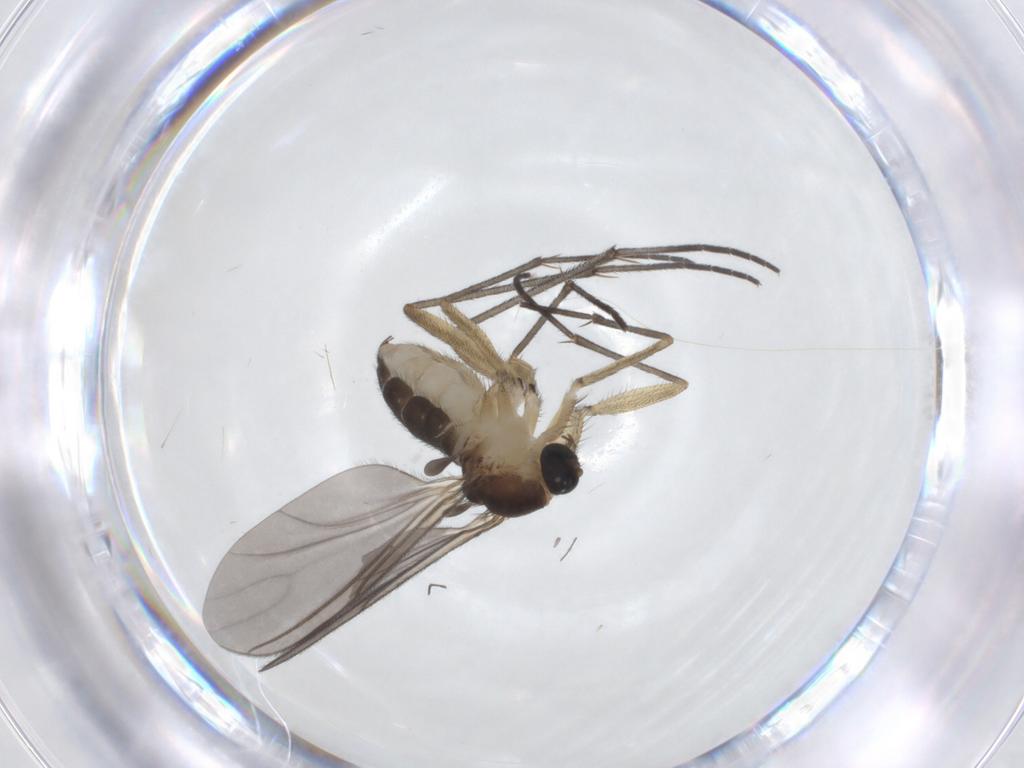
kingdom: Animalia
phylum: Arthropoda
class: Insecta
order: Diptera
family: Sciaridae
